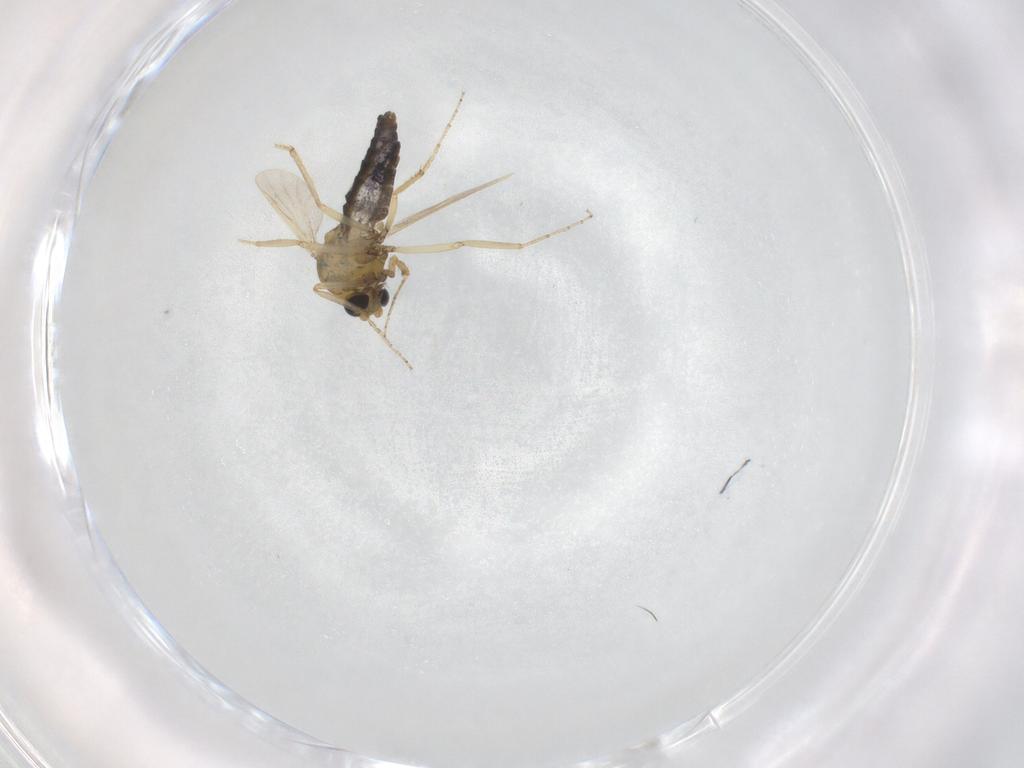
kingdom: Animalia
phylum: Arthropoda
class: Insecta
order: Diptera
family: Ceratopogonidae
